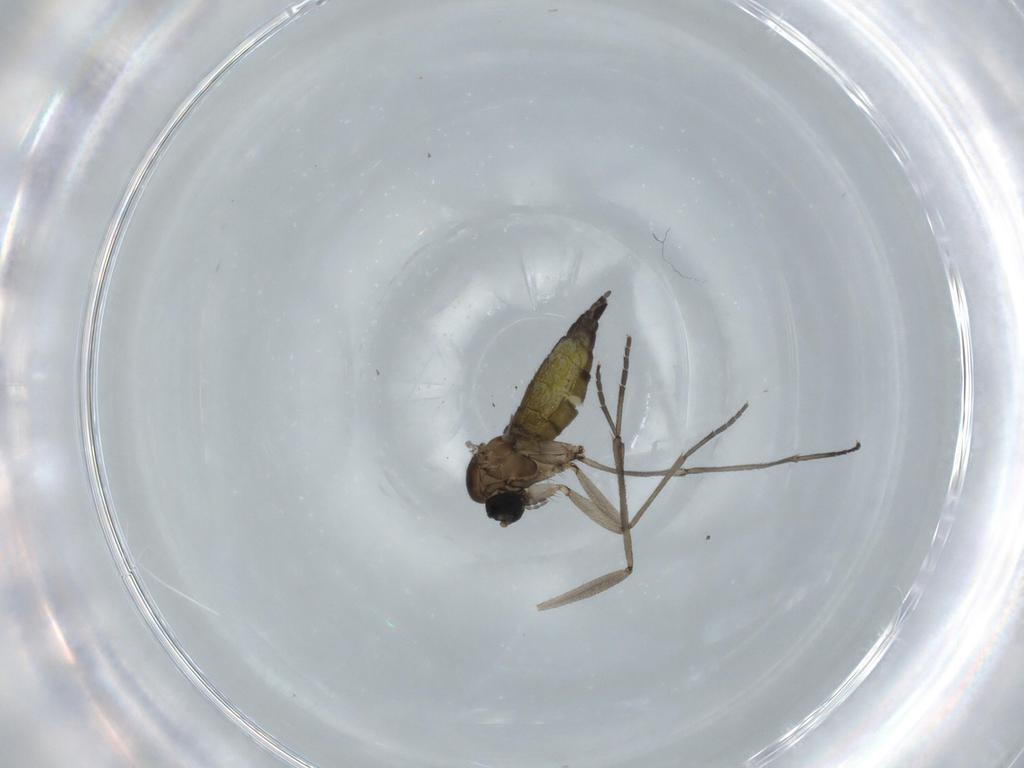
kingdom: Animalia
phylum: Arthropoda
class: Insecta
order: Diptera
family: Sciaridae
